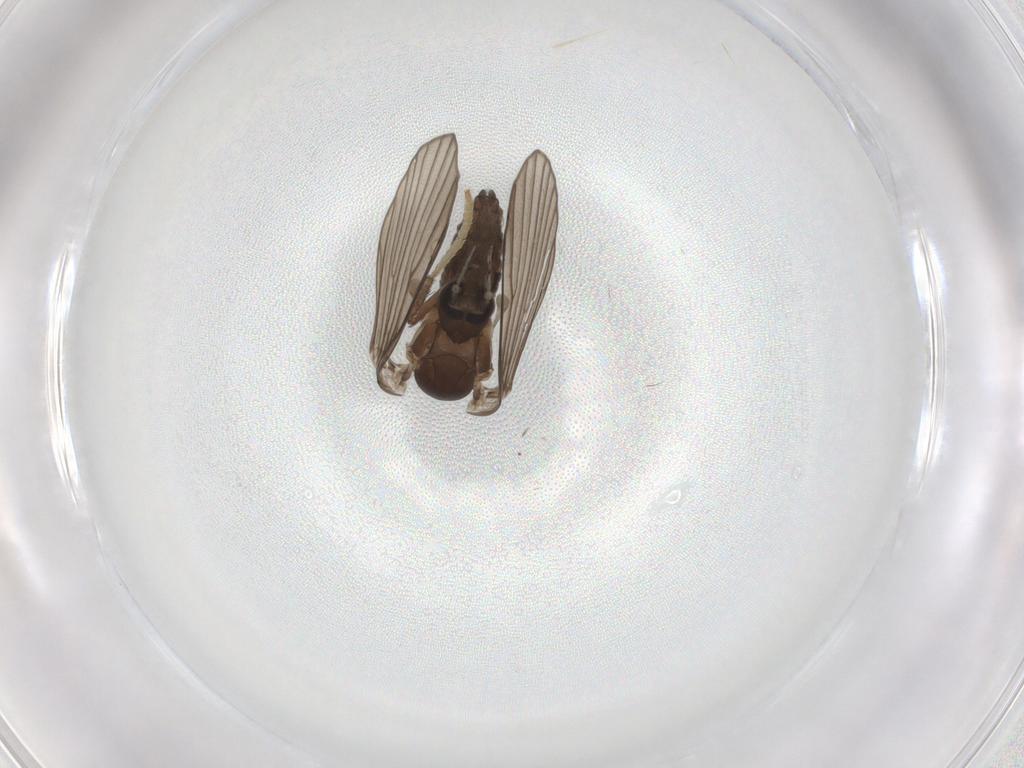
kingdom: Animalia
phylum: Arthropoda
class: Insecta
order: Diptera
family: Psychodidae
